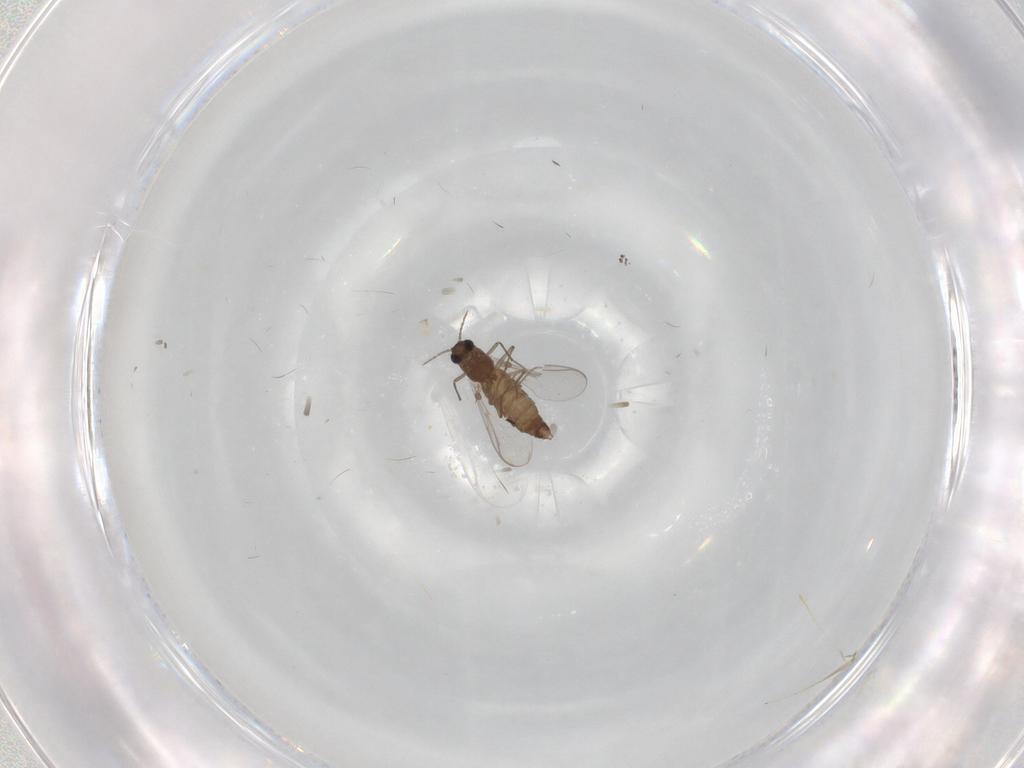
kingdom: Animalia
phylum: Arthropoda
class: Insecta
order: Diptera
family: Chironomidae
